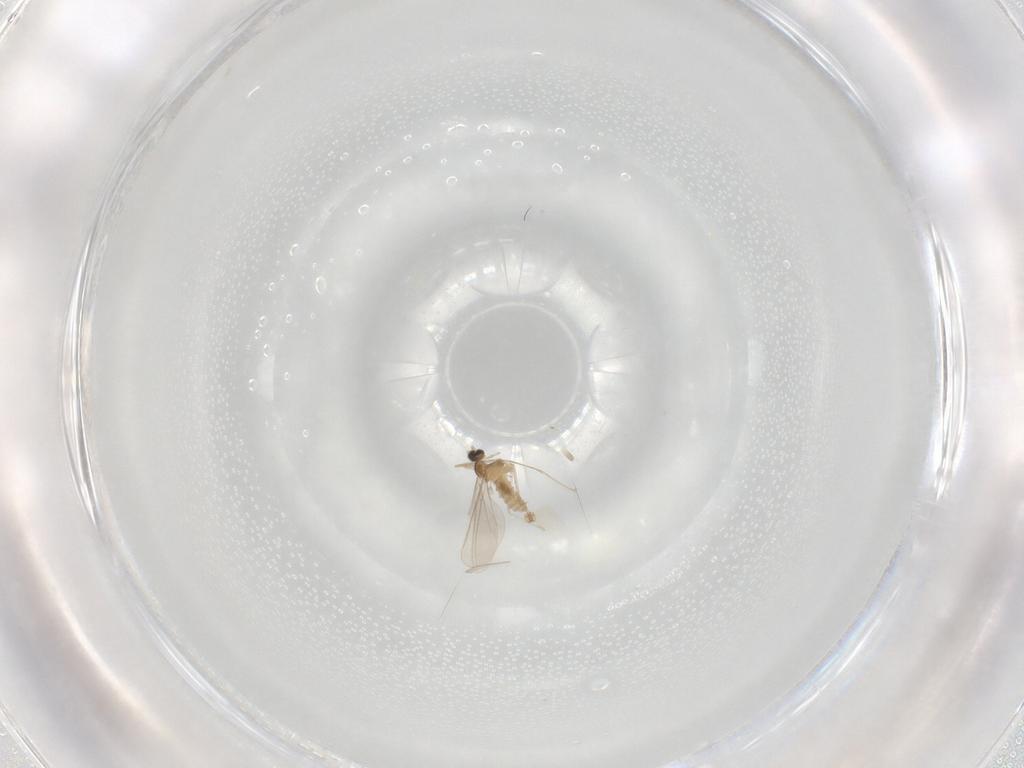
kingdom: Animalia
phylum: Arthropoda
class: Insecta
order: Diptera
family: Cecidomyiidae
